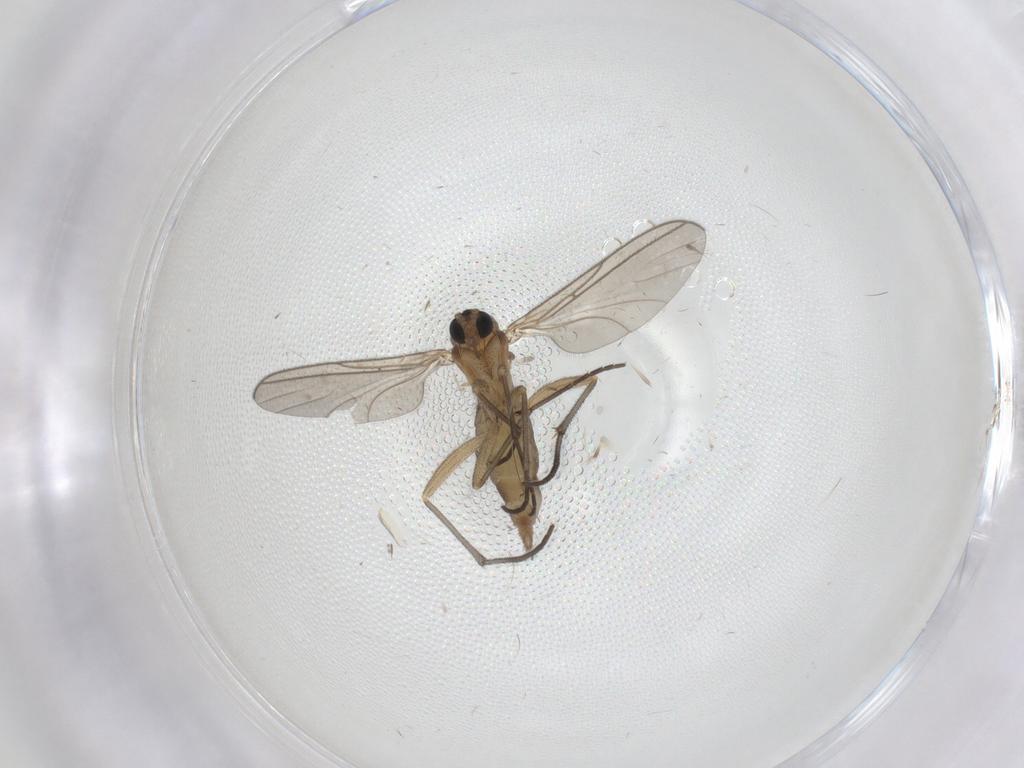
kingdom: Animalia
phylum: Arthropoda
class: Insecta
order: Diptera
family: Sciaridae
